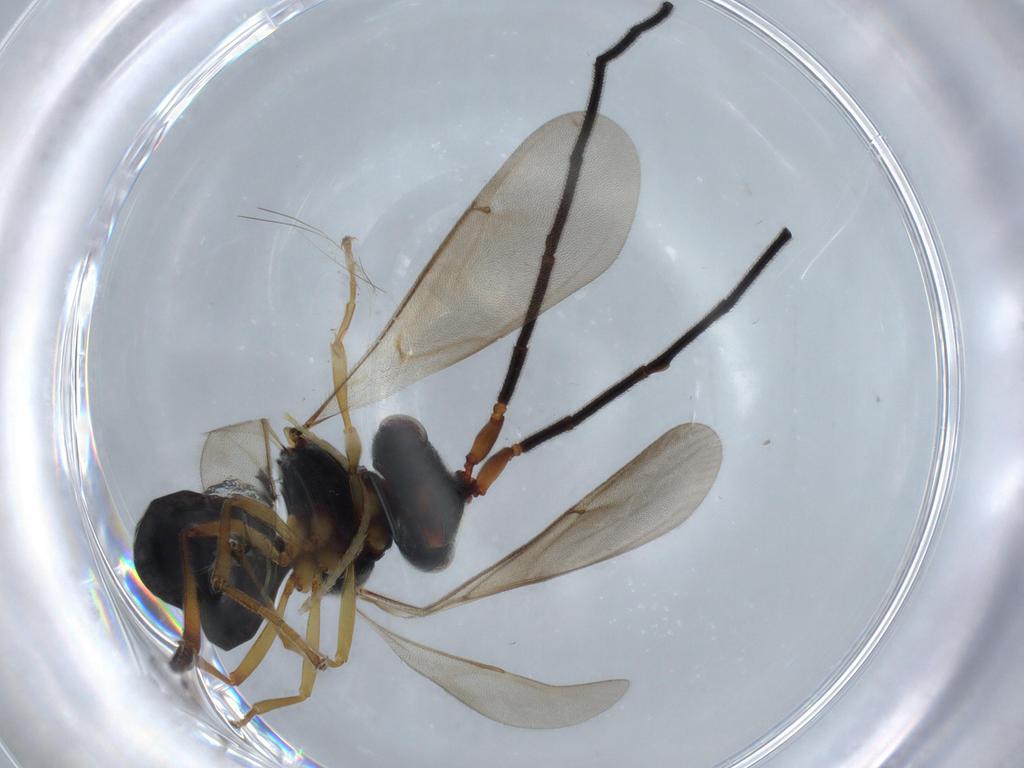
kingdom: Animalia
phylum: Arthropoda
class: Insecta
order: Hymenoptera
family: Scelionidae
